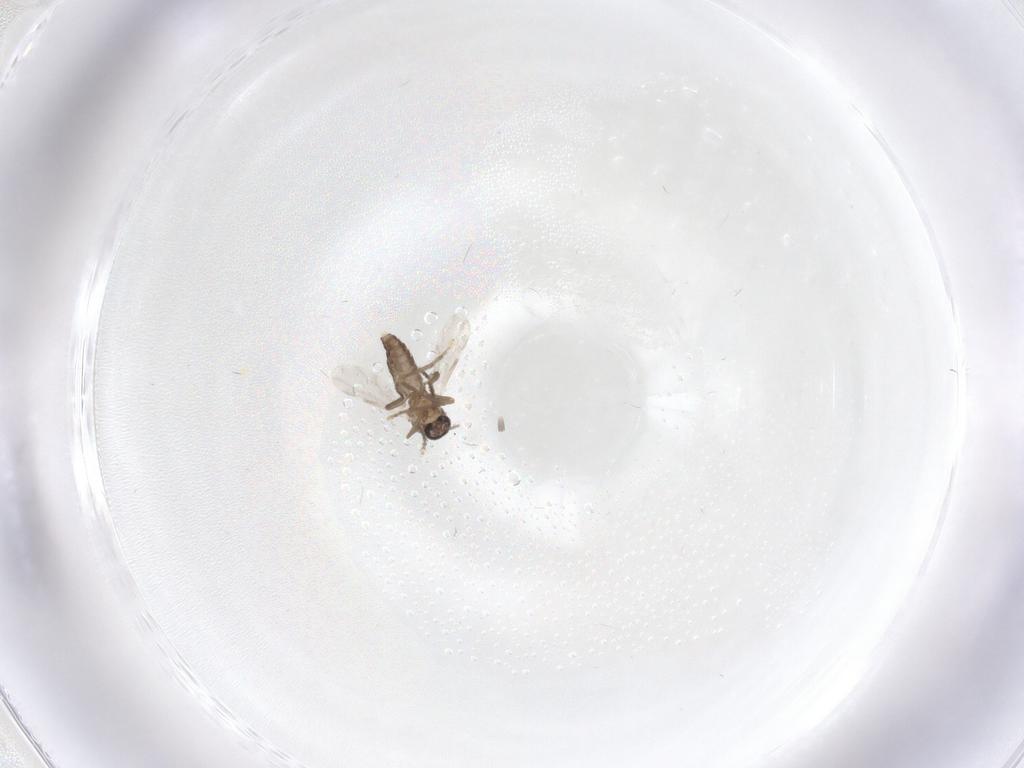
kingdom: Animalia
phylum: Arthropoda
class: Insecta
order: Diptera
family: Ceratopogonidae
